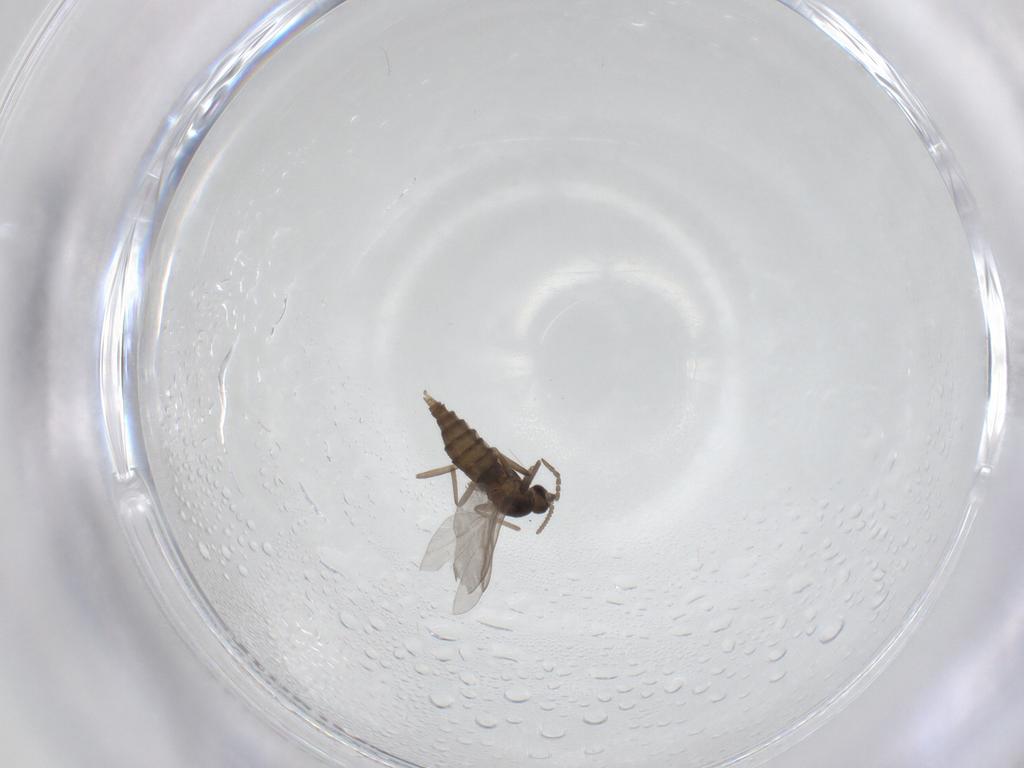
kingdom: Animalia
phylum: Arthropoda
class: Insecta
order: Diptera
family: Cecidomyiidae
